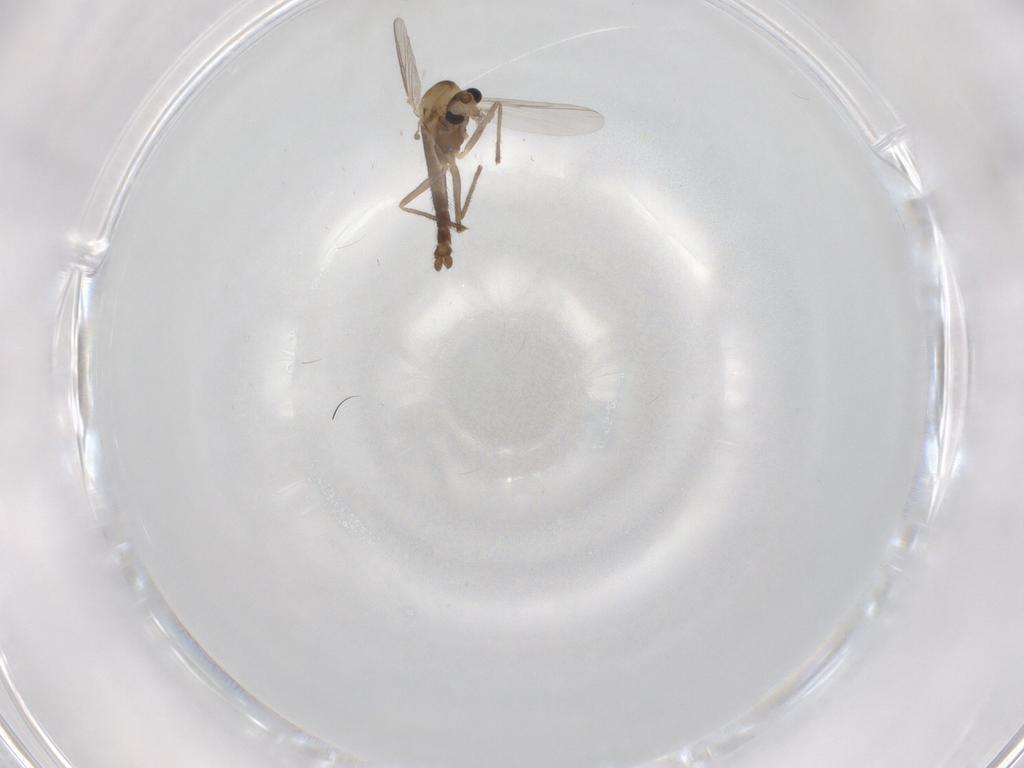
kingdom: Animalia
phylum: Arthropoda
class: Insecta
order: Diptera
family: Chironomidae
